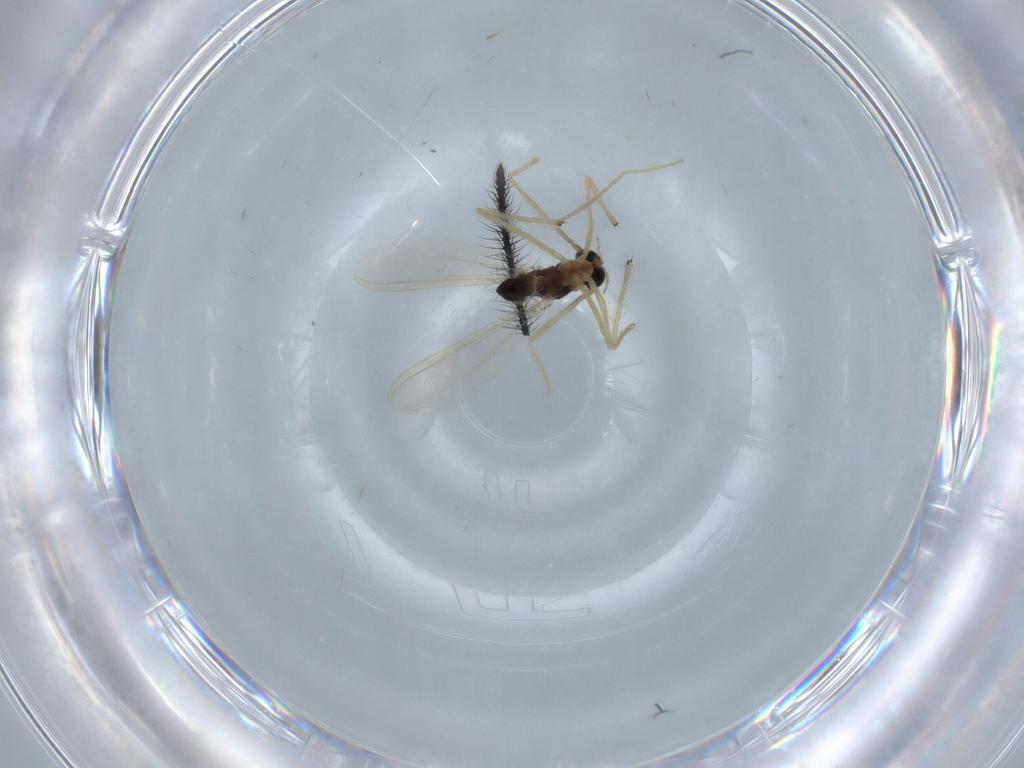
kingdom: Animalia
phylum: Arthropoda
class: Insecta
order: Diptera
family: Chironomidae
